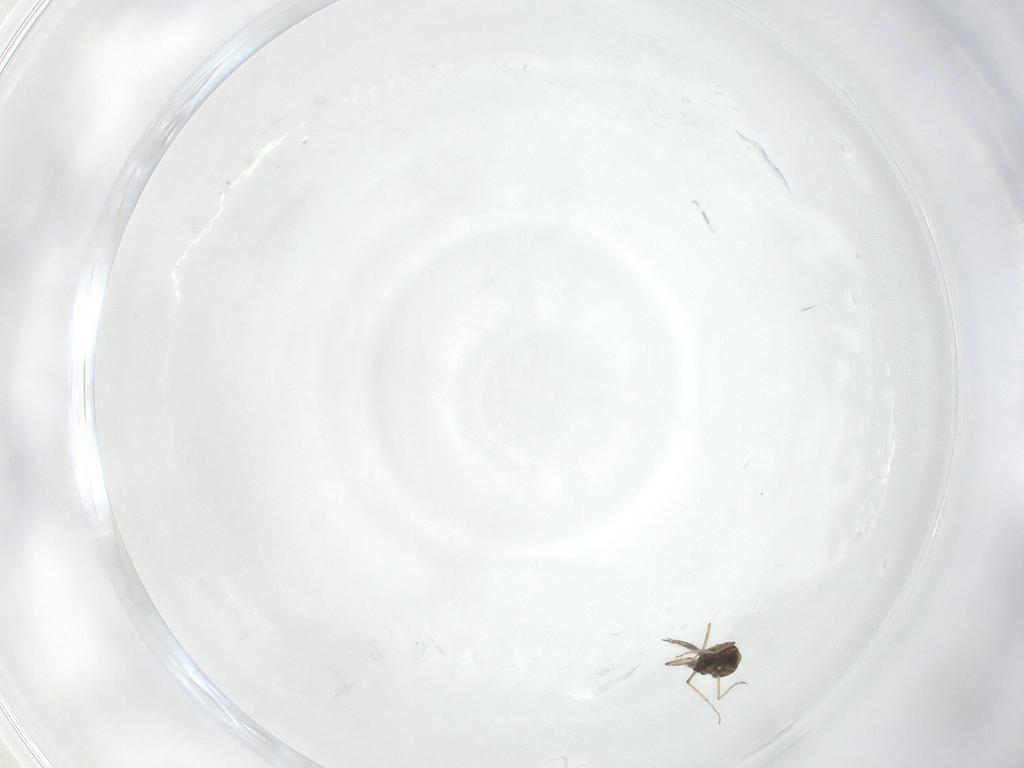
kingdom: Animalia
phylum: Arthropoda
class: Insecta
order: Diptera
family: Ceratopogonidae
